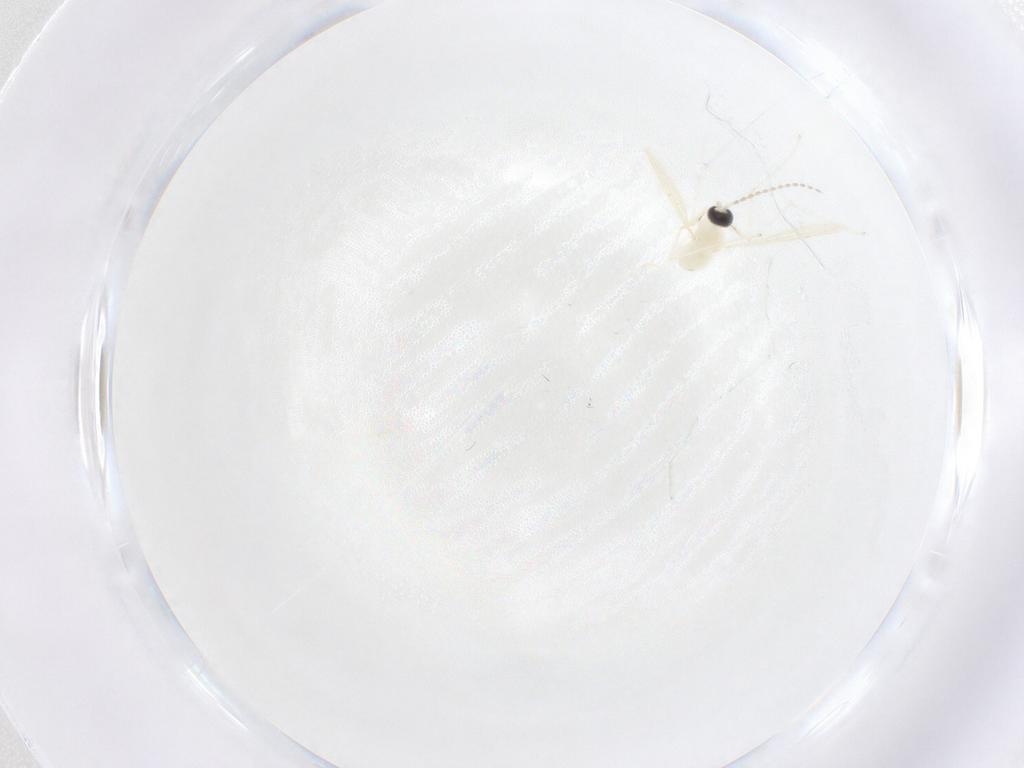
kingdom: Animalia
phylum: Arthropoda
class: Insecta
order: Diptera
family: Cecidomyiidae
